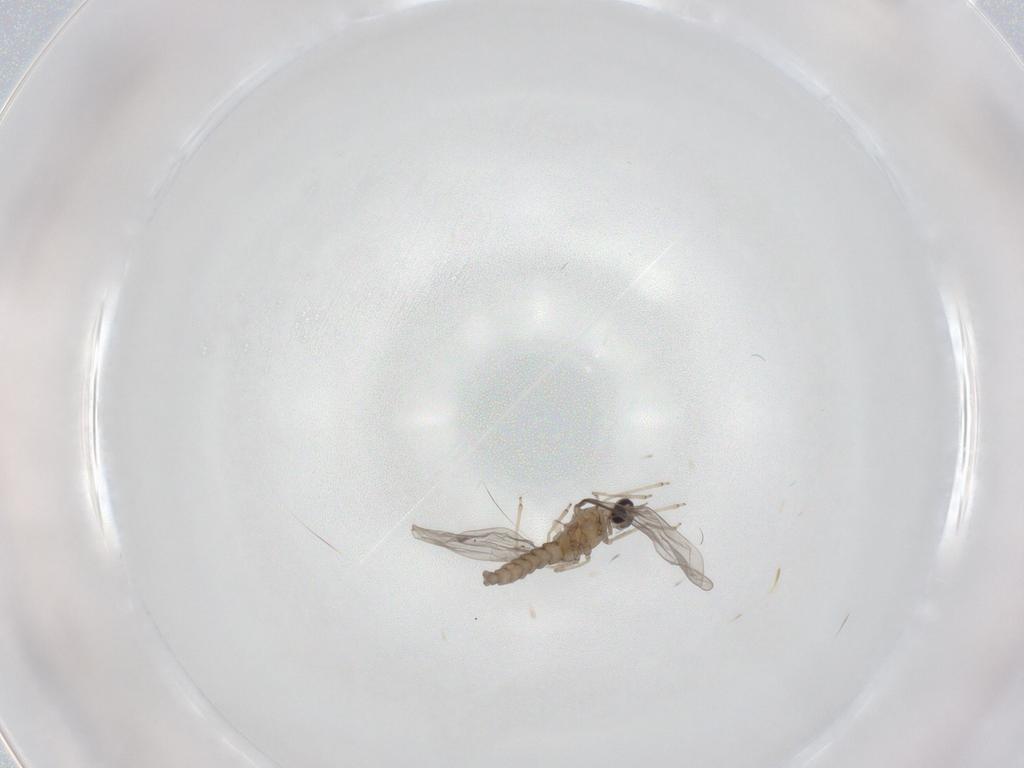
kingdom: Animalia
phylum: Arthropoda
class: Insecta
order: Diptera
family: Cecidomyiidae
